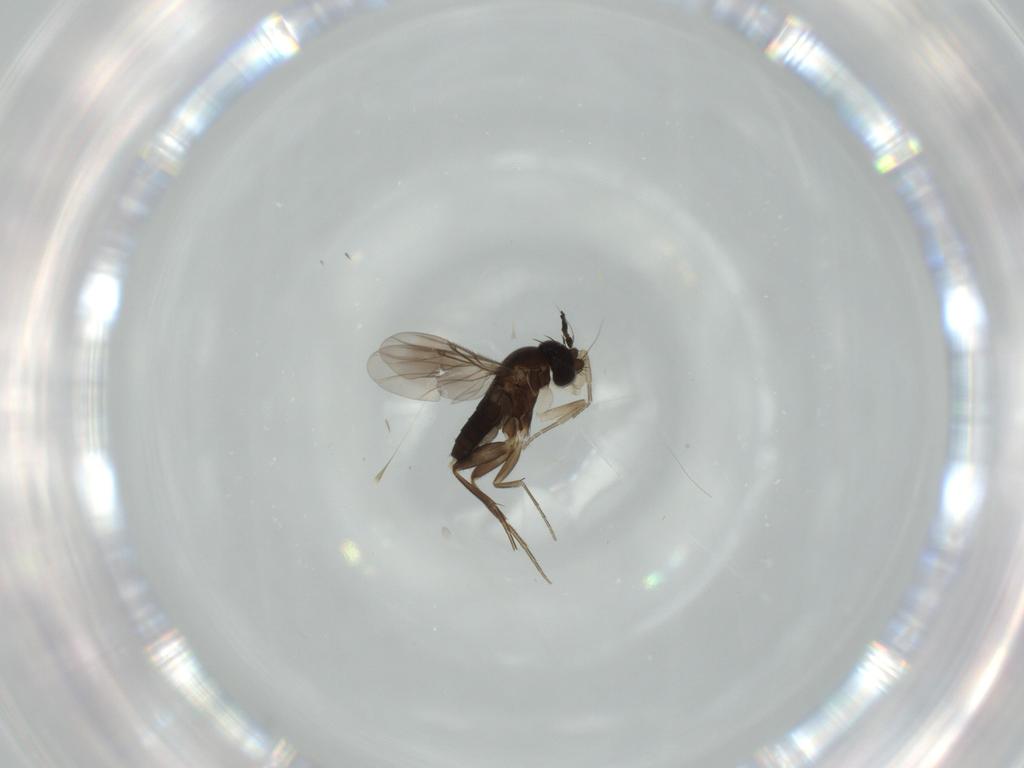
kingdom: Animalia
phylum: Arthropoda
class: Insecta
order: Diptera
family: Phoridae
